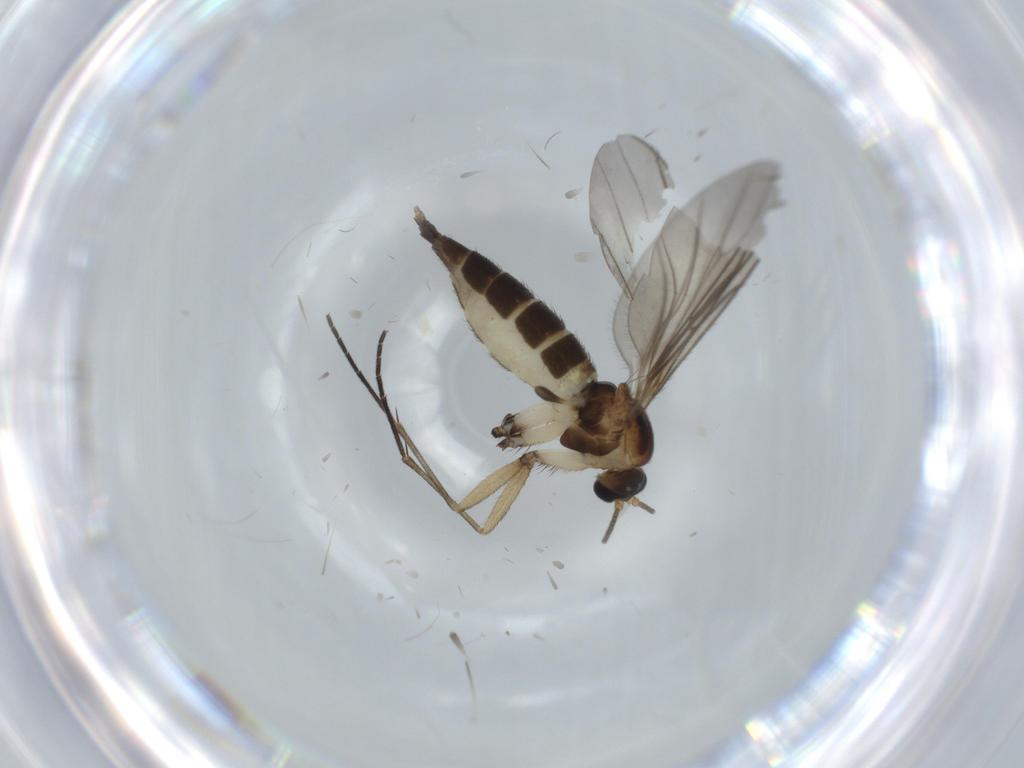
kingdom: Animalia
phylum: Arthropoda
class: Insecta
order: Diptera
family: Sciaridae
